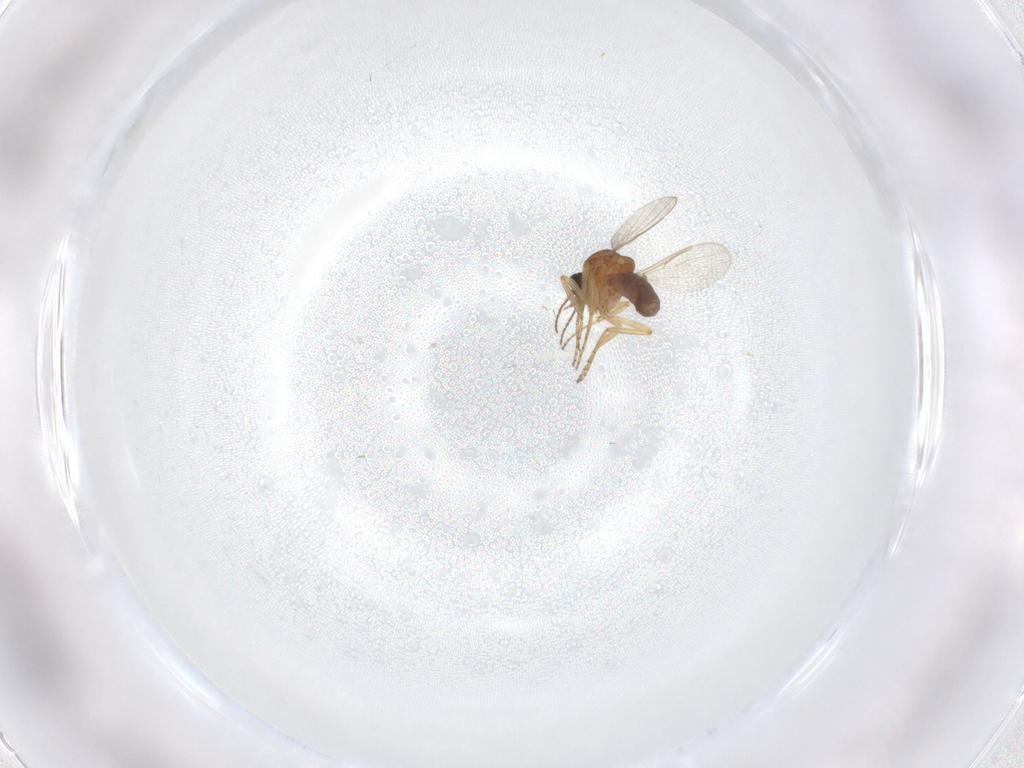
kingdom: Animalia
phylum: Arthropoda
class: Insecta
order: Diptera
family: Ceratopogonidae
